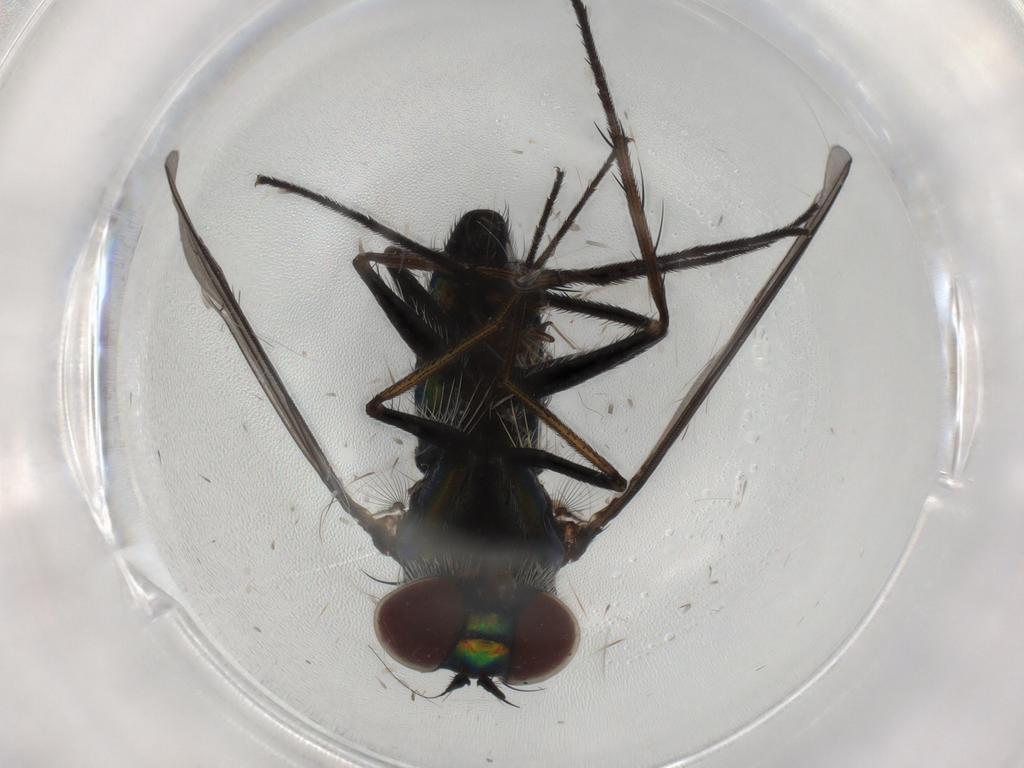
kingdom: Animalia
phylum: Arthropoda
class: Insecta
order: Diptera
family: Dolichopodidae
